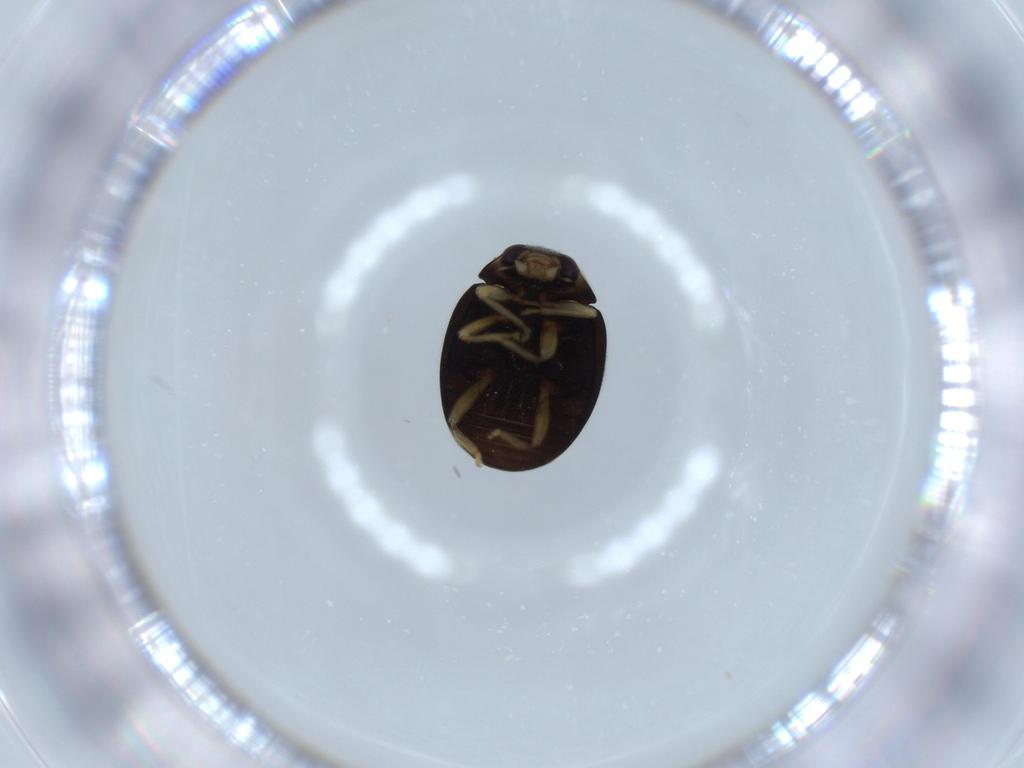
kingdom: Animalia
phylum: Arthropoda
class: Insecta
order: Coleoptera
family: Coccinellidae
